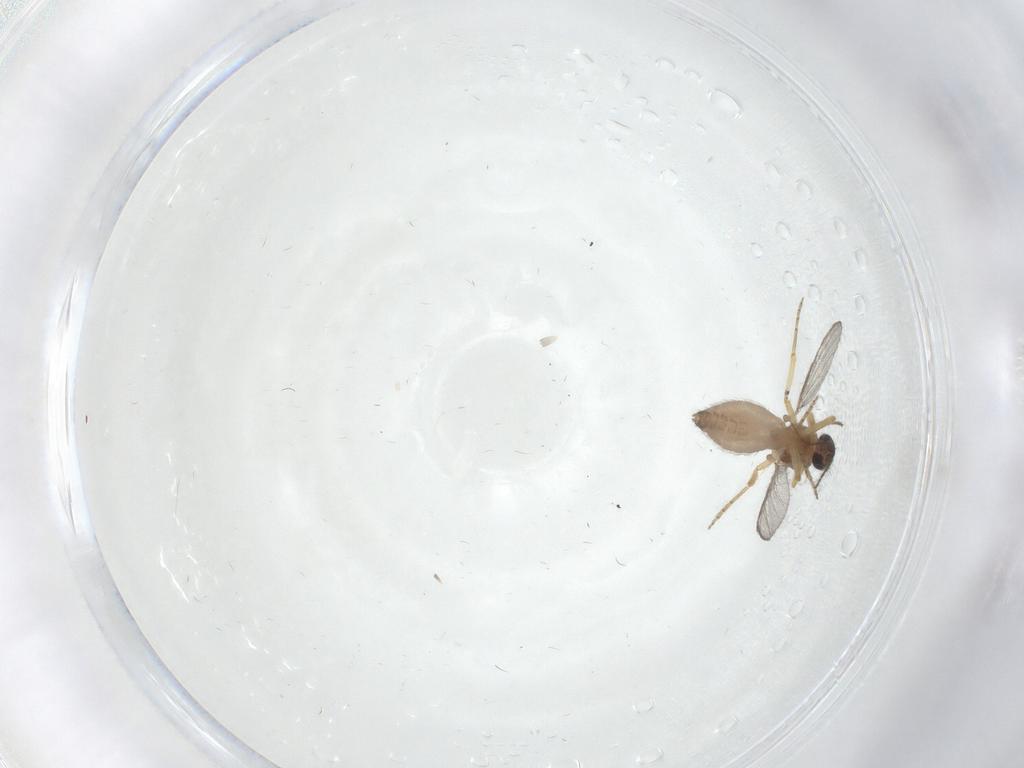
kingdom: Animalia
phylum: Arthropoda
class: Insecta
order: Diptera
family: Ceratopogonidae
